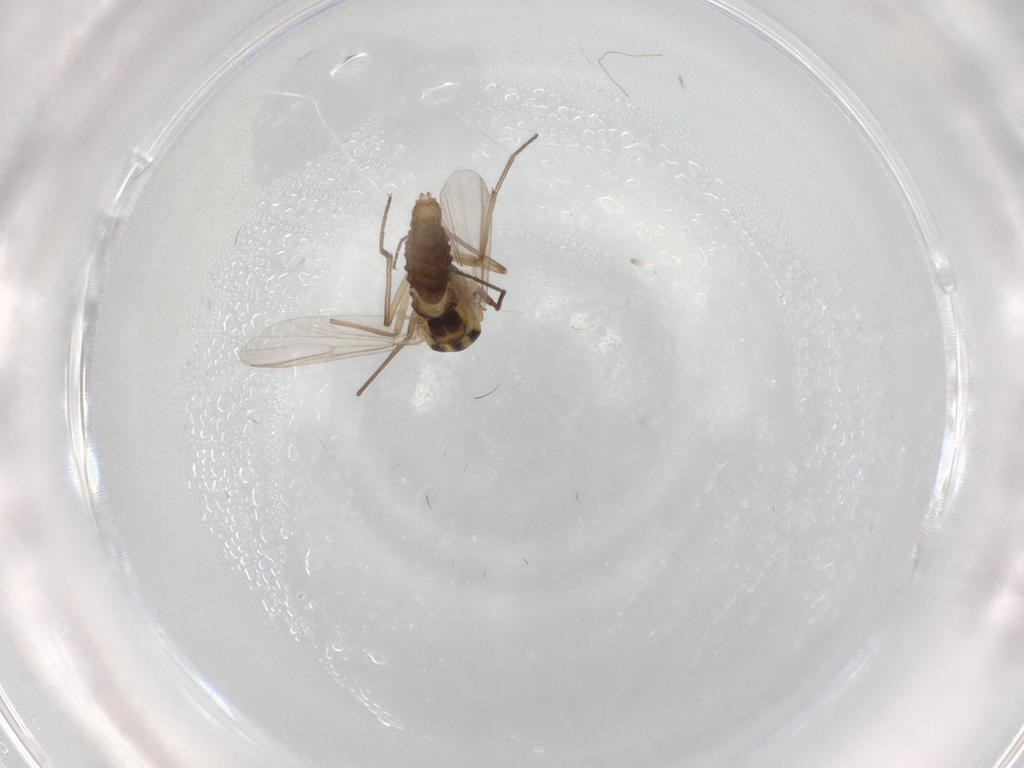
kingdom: Animalia
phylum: Arthropoda
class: Insecta
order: Diptera
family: Chironomidae
